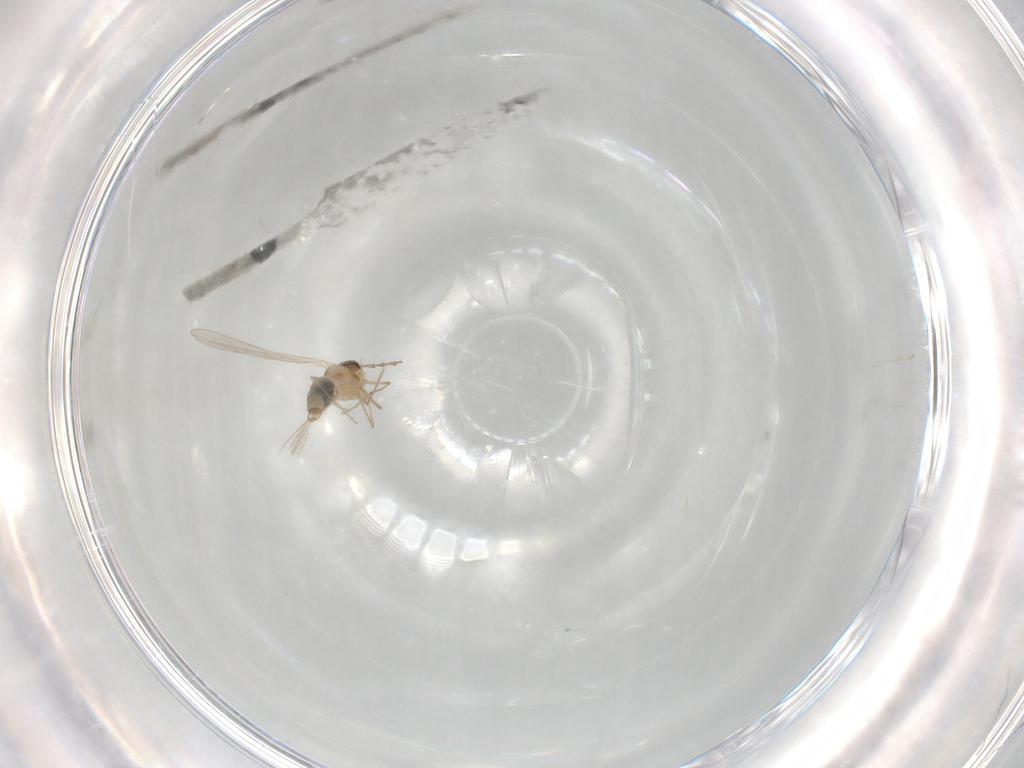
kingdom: Animalia
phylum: Arthropoda
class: Insecta
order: Diptera
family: Cecidomyiidae
